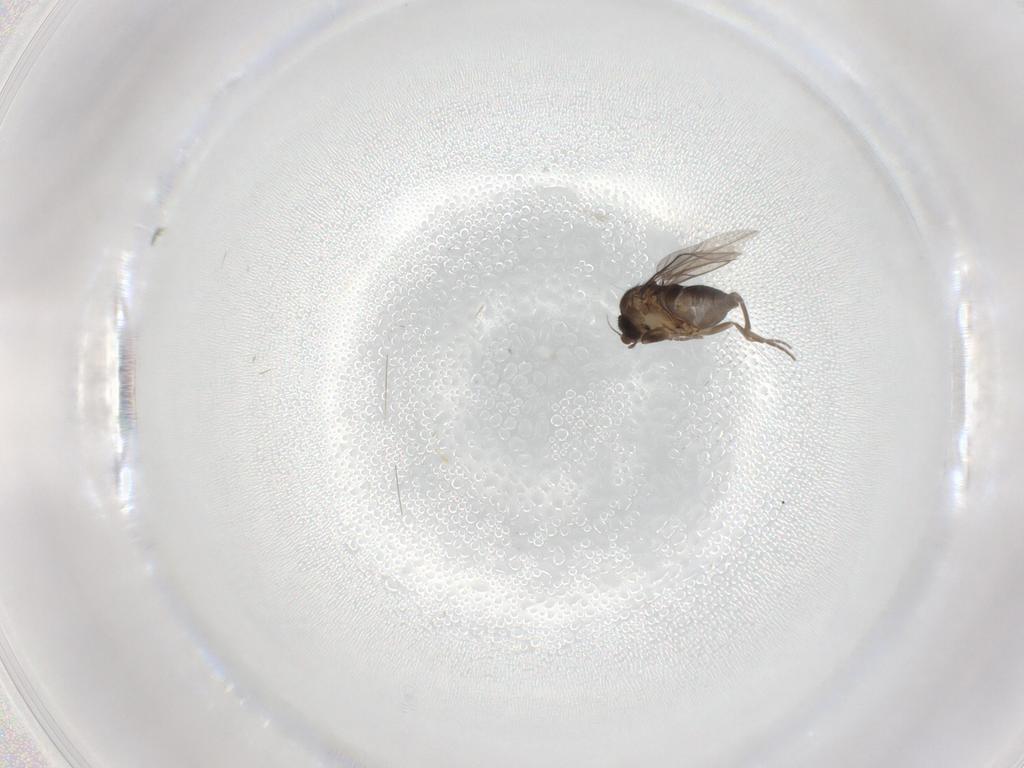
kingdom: Animalia
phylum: Arthropoda
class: Insecta
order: Diptera
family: Phoridae
